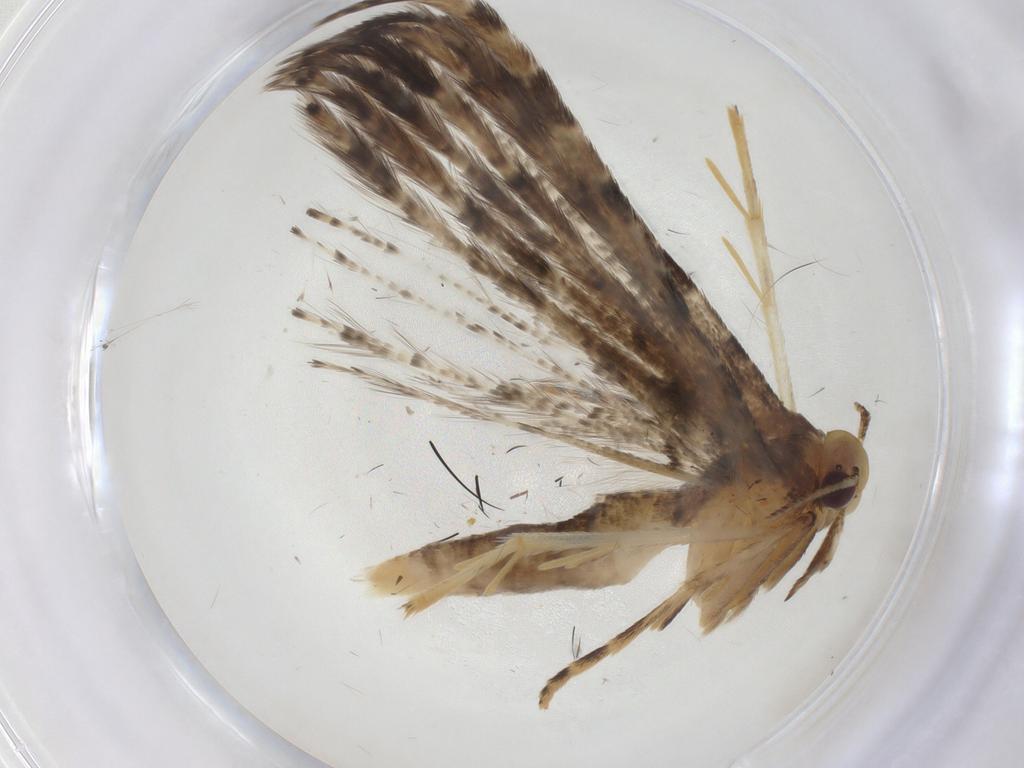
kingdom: Animalia
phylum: Arthropoda
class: Insecta
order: Lepidoptera
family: Alucitidae
